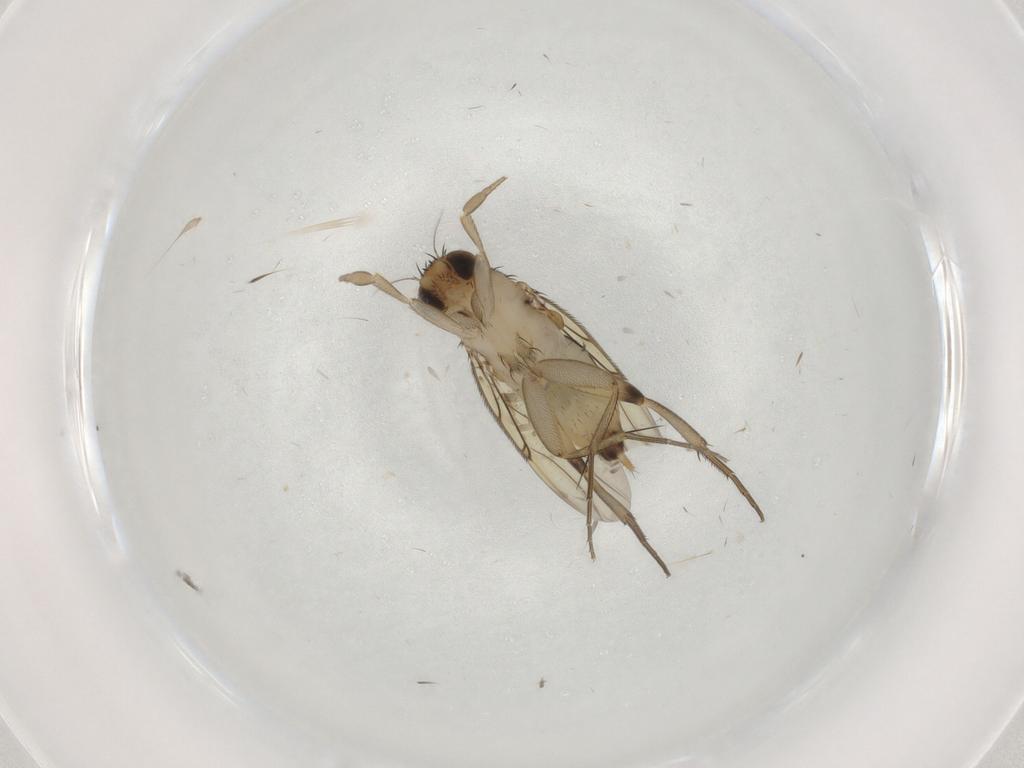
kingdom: Animalia
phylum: Arthropoda
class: Insecta
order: Diptera
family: Phoridae
